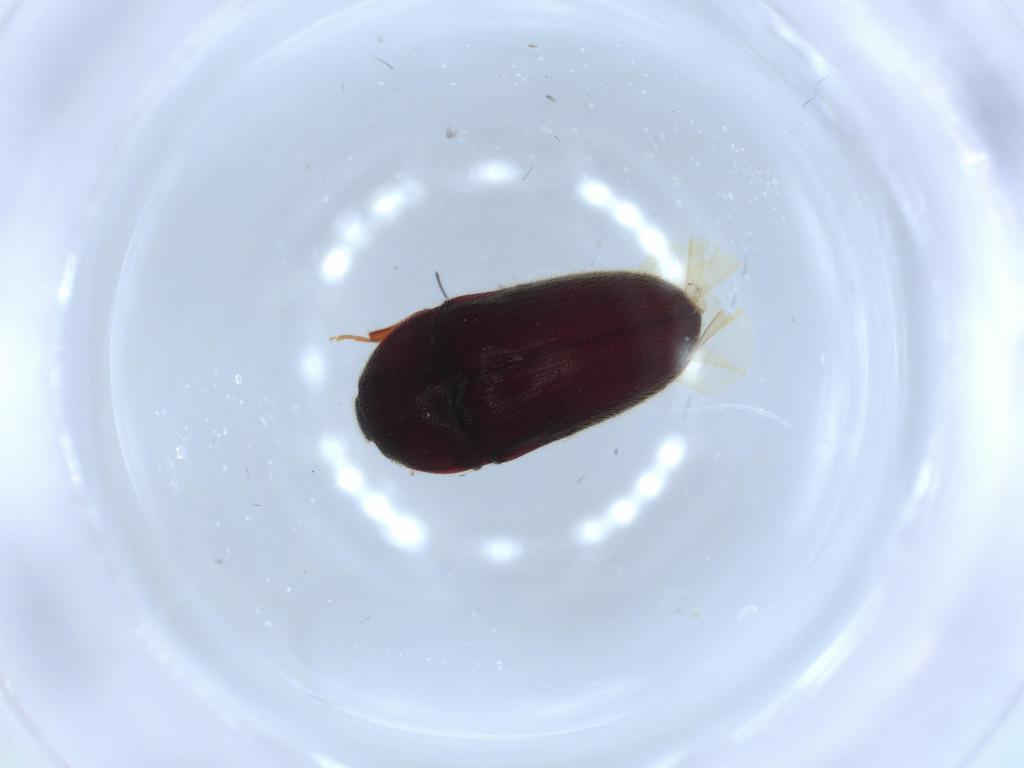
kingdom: Animalia
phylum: Arthropoda
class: Insecta
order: Coleoptera
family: Throscidae
